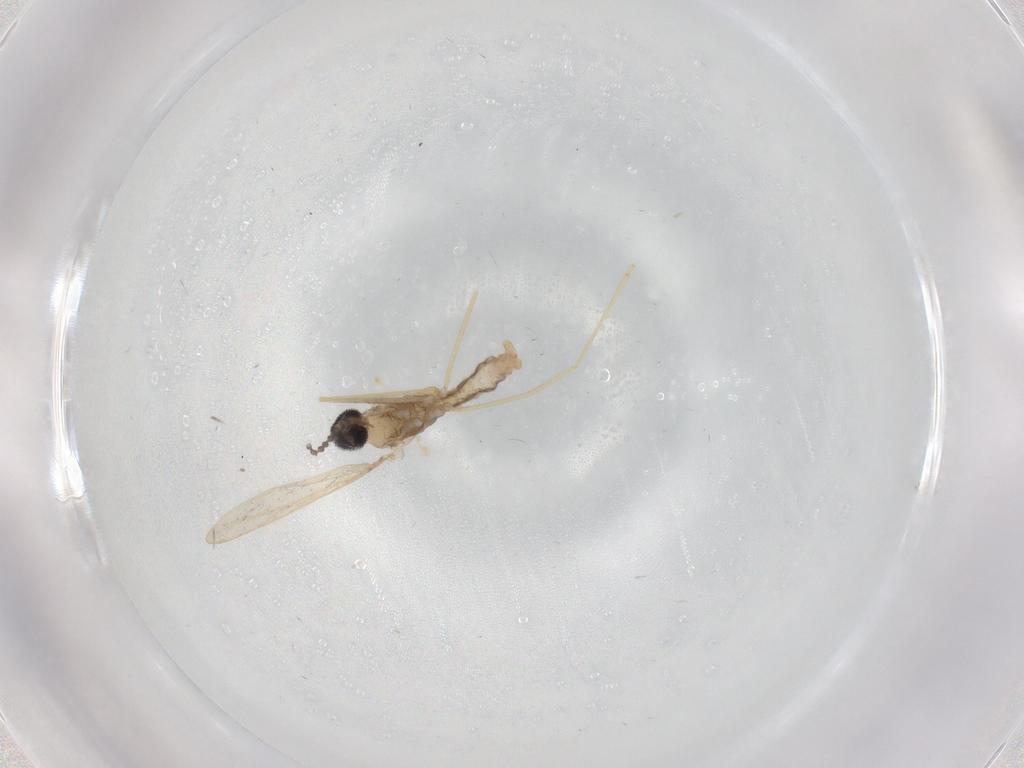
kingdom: Animalia
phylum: Arthropoda
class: Insecta
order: Diptera
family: Cecidomyiidae
